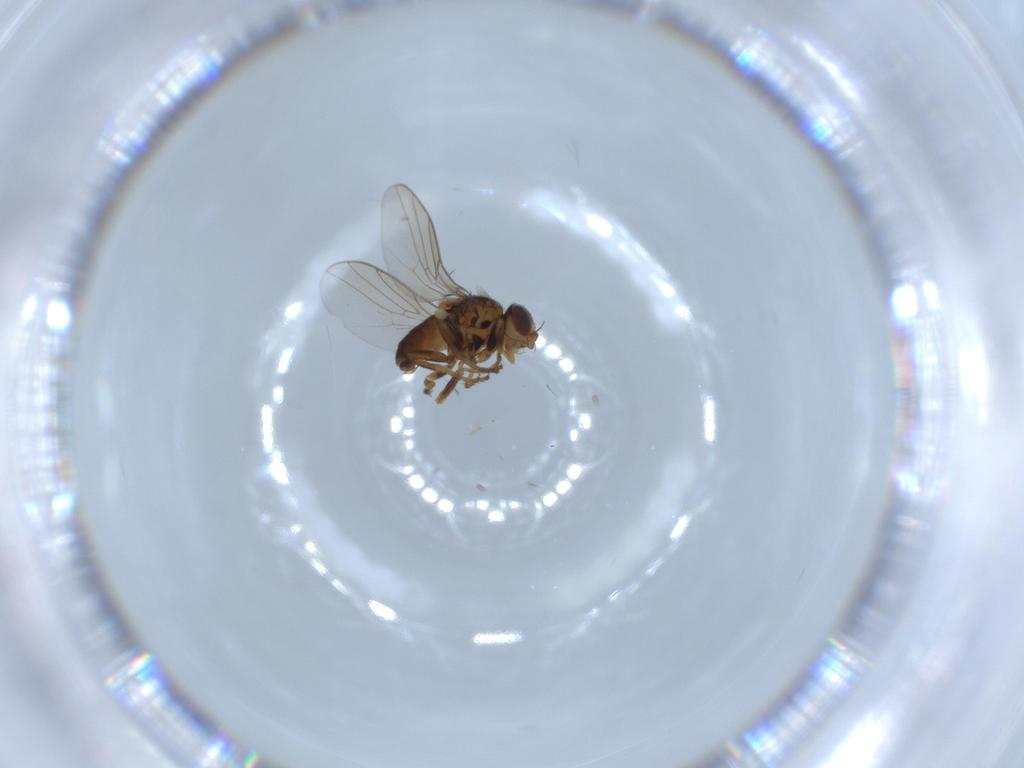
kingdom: Animalia
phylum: Arthropoda
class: Insecta
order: Diptera
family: Chloropidae
